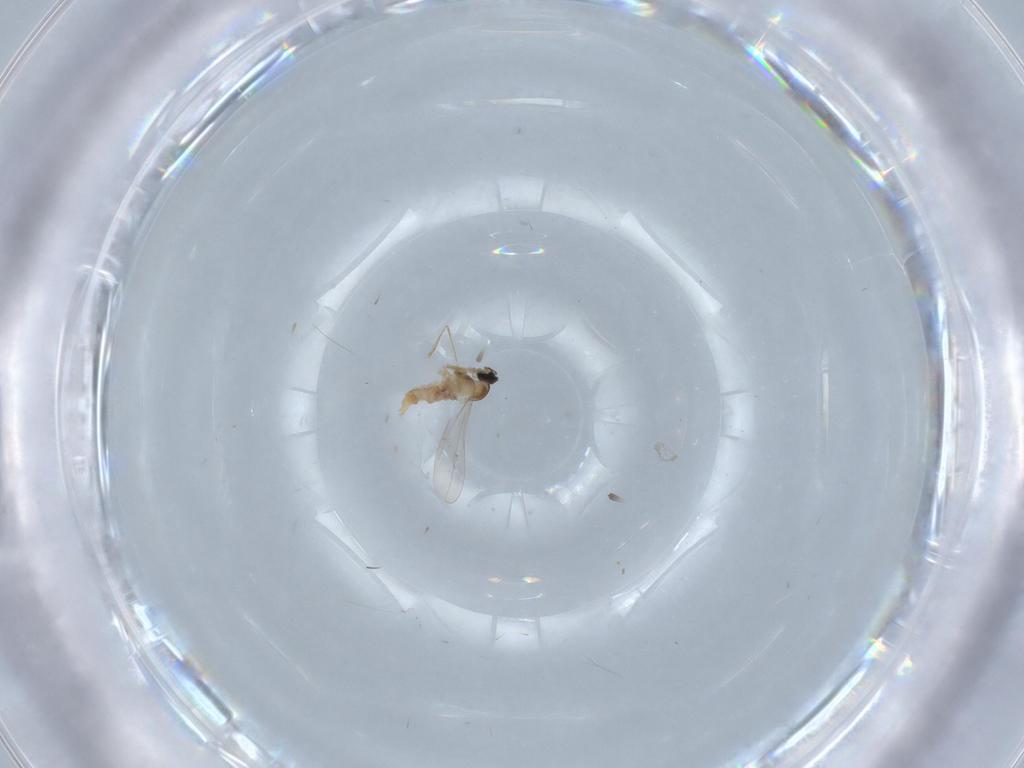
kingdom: Animalia
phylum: Arthropoda
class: Insecta
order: Diptera
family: Cecidomyiidae
